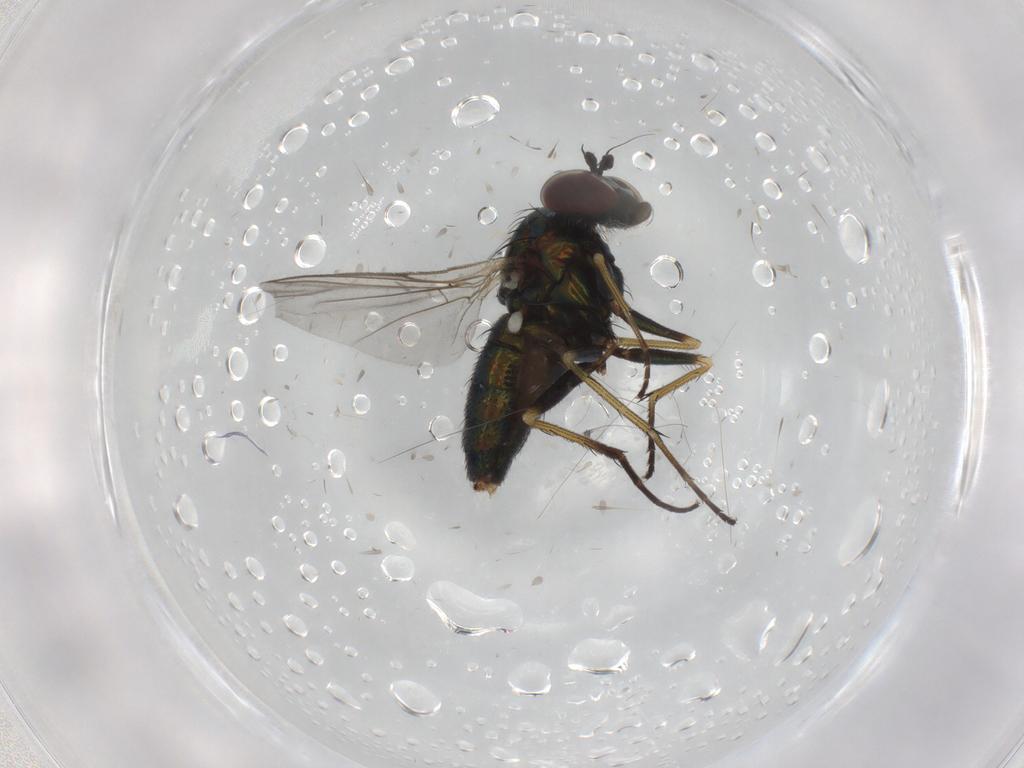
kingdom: Animalia
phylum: Arthropoda
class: Insecta
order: Diptera
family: Dolichopodidae
